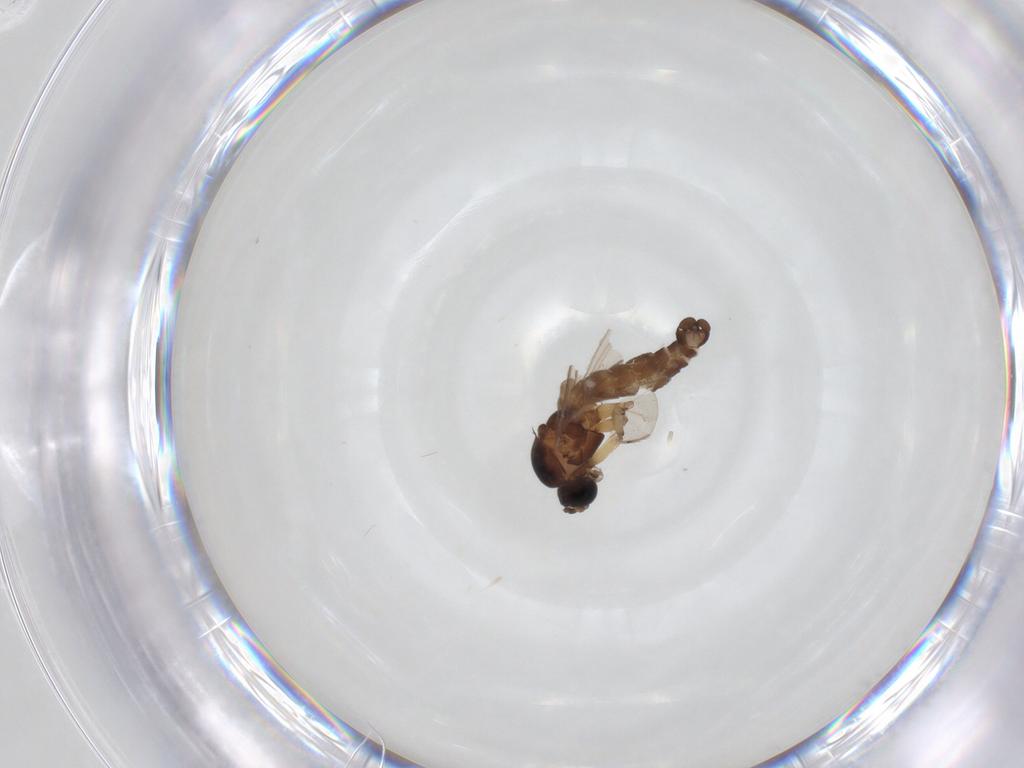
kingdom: Animalia
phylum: Arthropoda
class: Insecta
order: Diptera
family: Sciaridae
